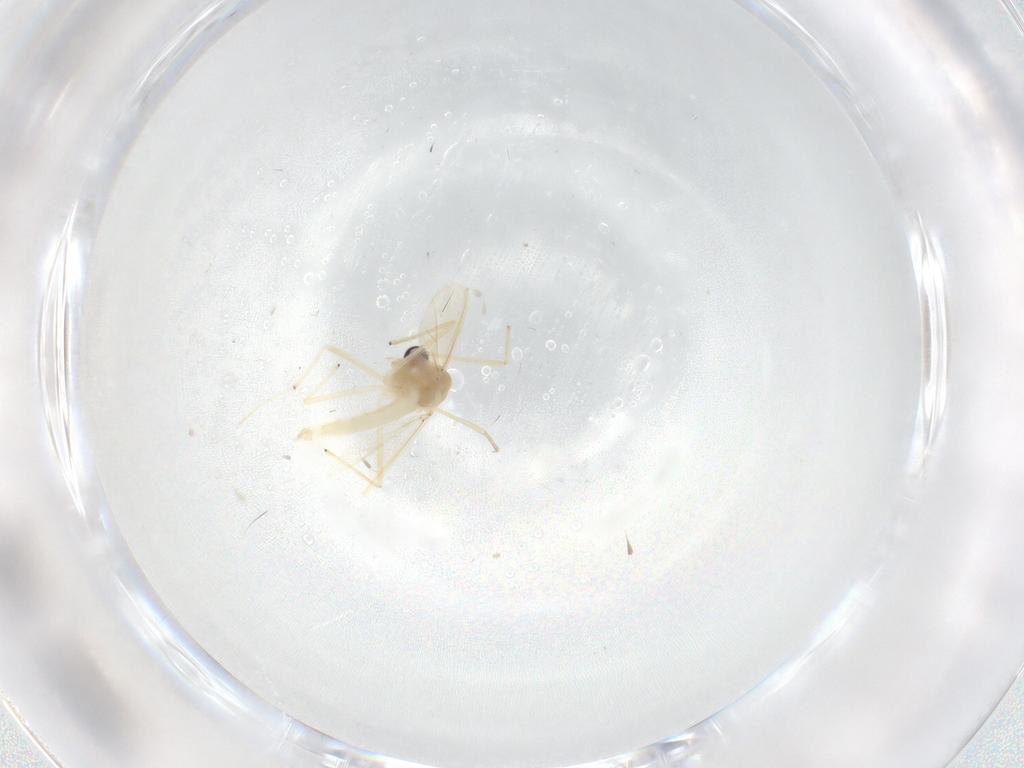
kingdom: Animalia
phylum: Arthropoda
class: Insecta
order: Diptera
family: Chironomidae
